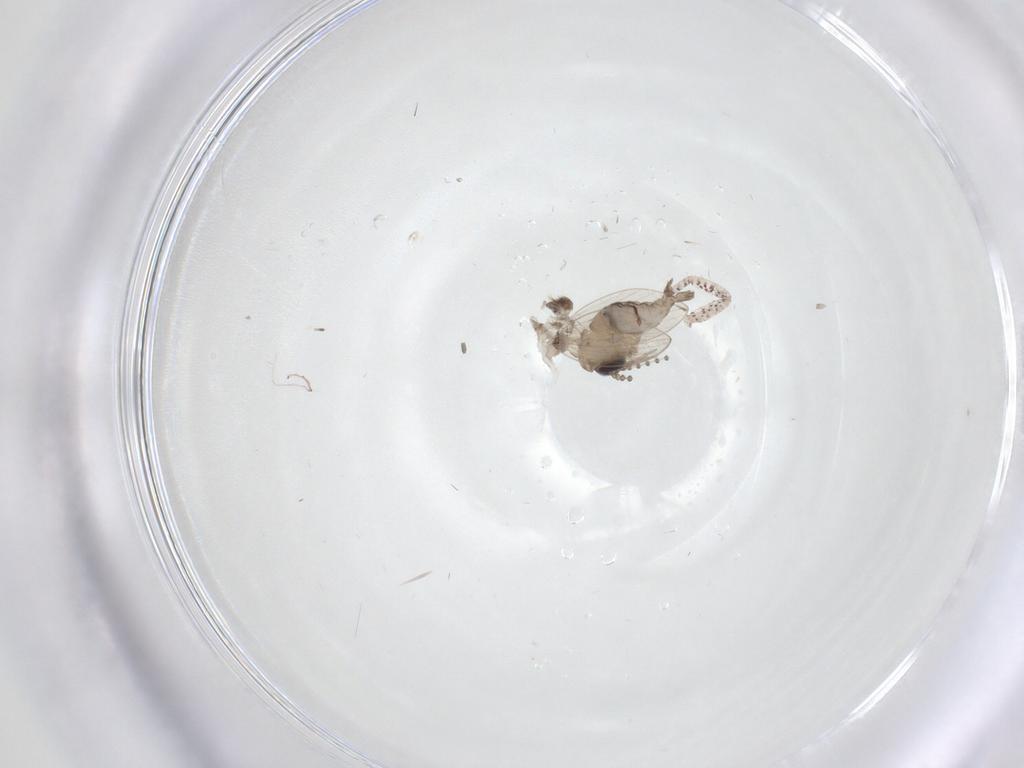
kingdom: Animalia
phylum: Arthropoda
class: Insecta
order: Diptera
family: Psychodidae
